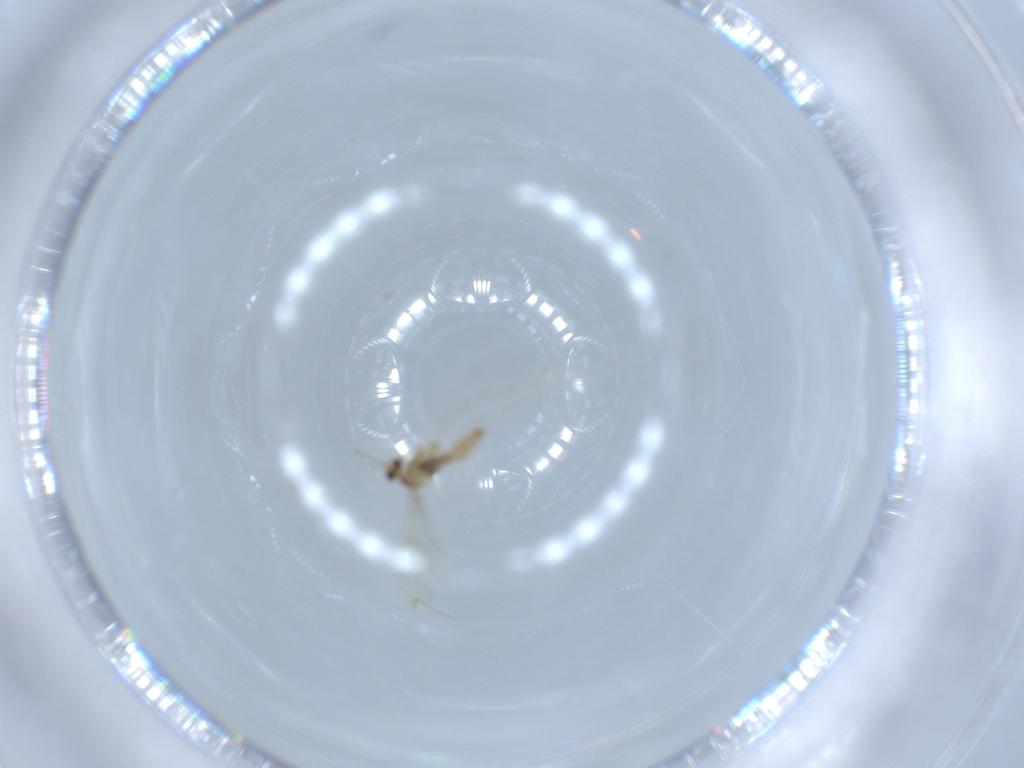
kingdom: Animalia
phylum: Arthropoda
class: Insecta
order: Diptera
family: Cecidomyiidae
